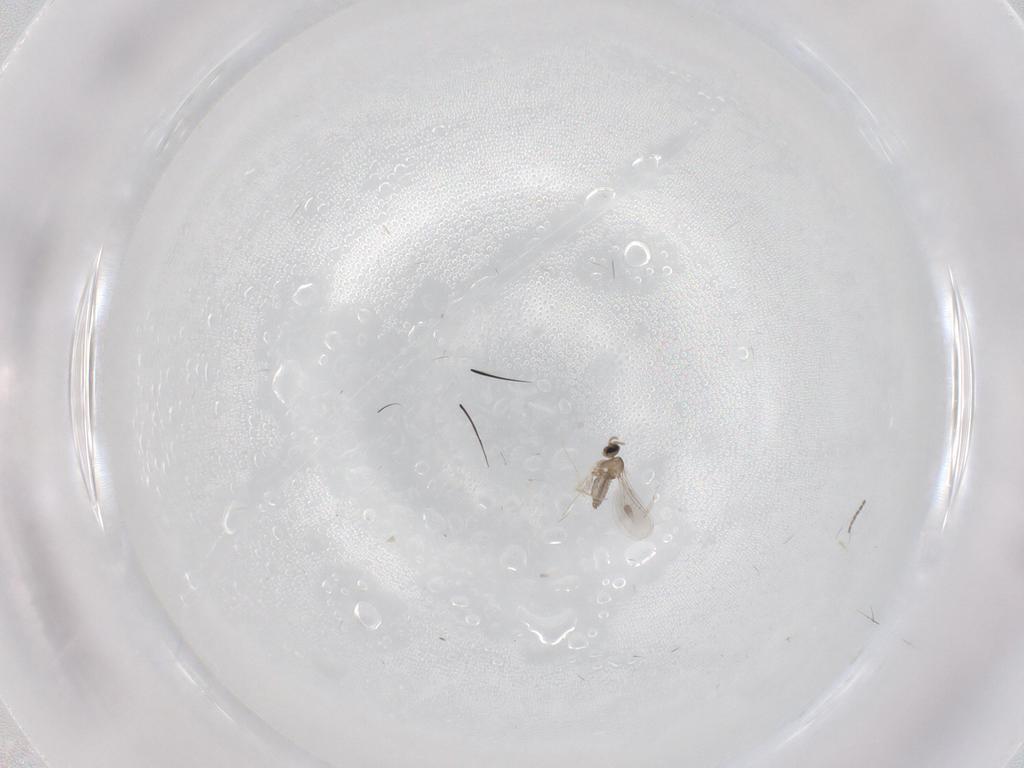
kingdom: Animalia
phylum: Arthropoda
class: Insecta
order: Diptera
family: Cecidomyiidae
